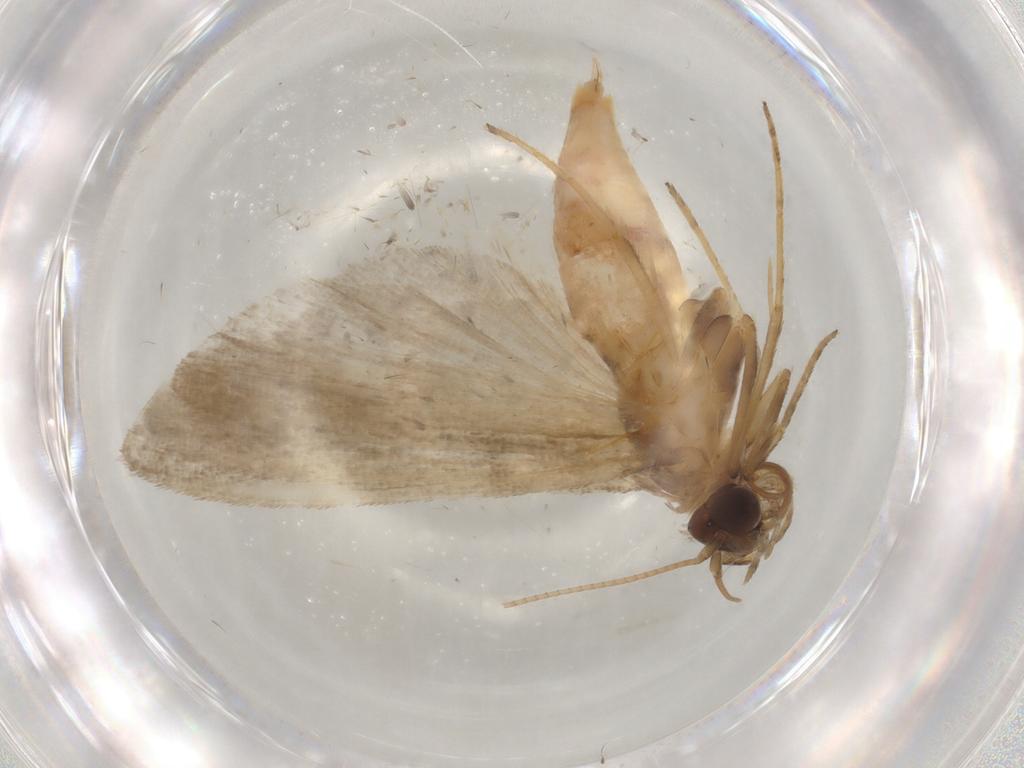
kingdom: Animalia
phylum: Arthropoda
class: Insecta
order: Lepidoptera
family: Noctuidae
